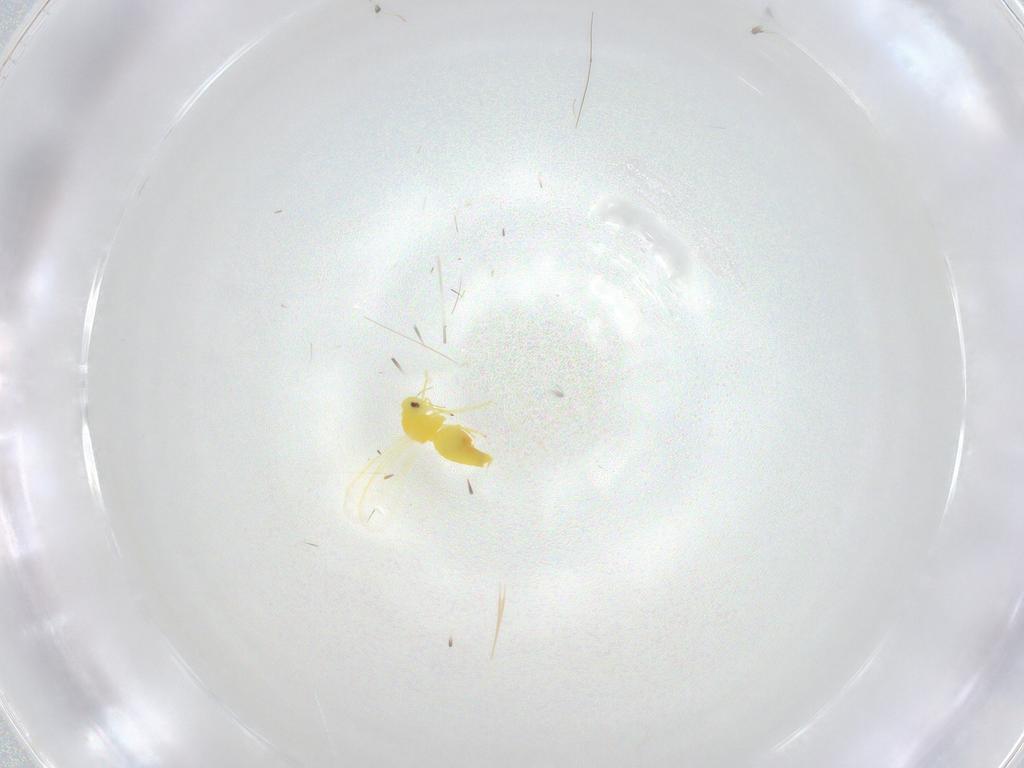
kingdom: Animalia
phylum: Arthropoda
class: Insecta
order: Hemiptera
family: Aleyrodidae
